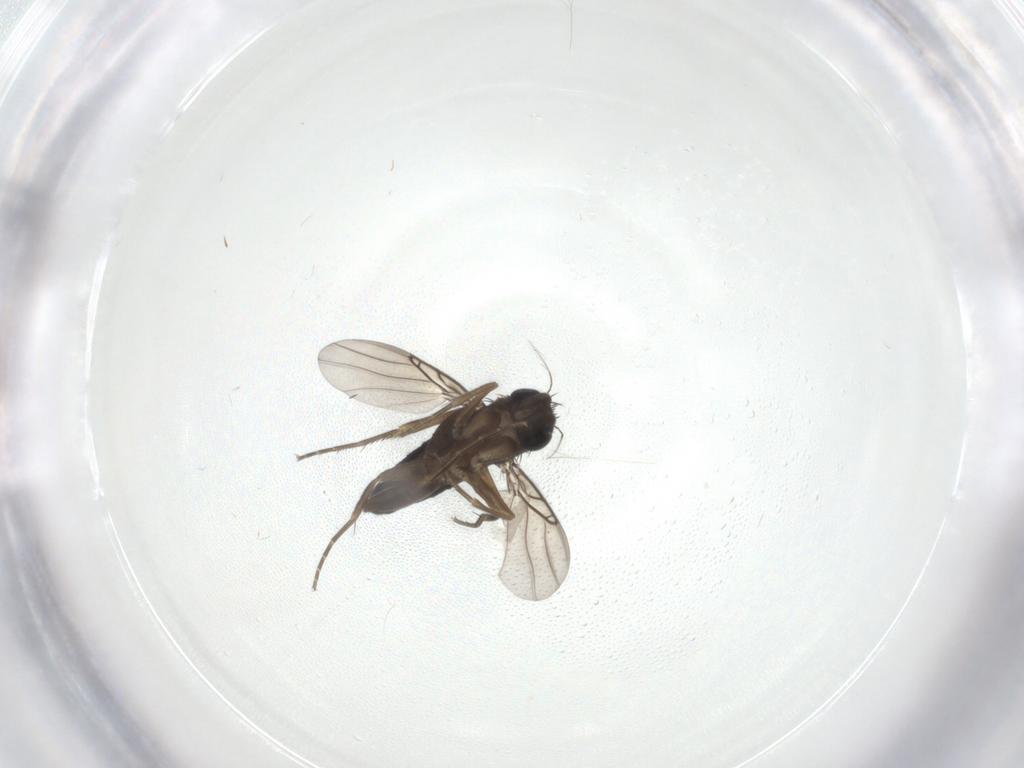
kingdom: Animalia
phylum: Arthropoda
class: Insecta
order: Diptera
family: Phoridae
